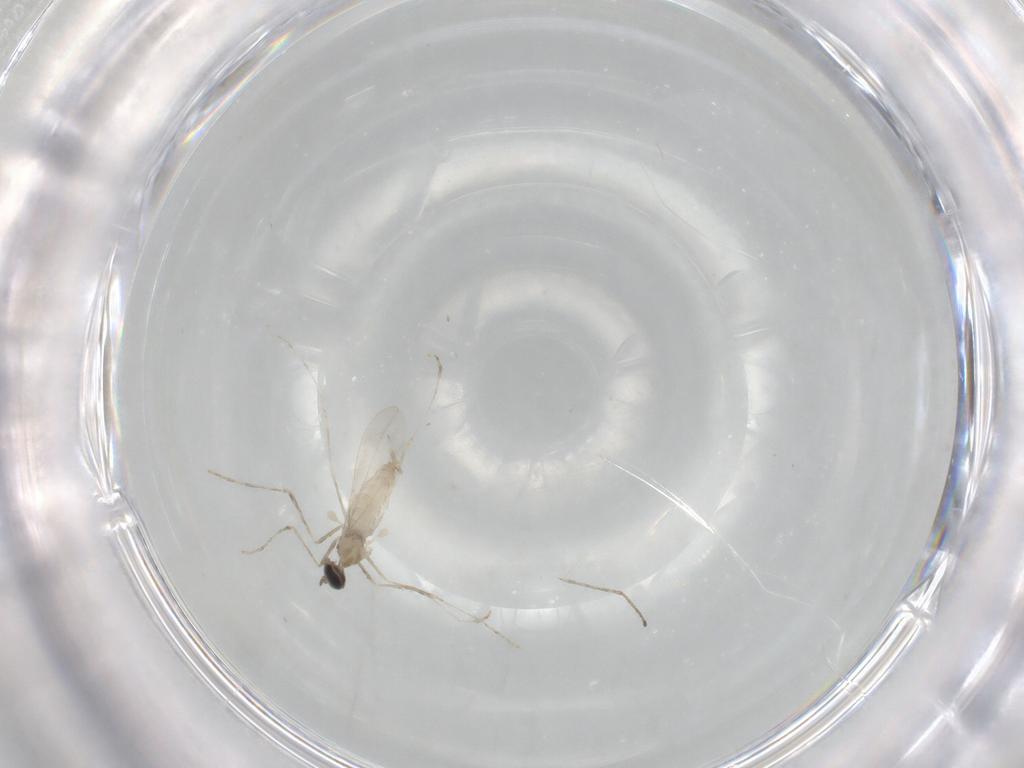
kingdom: Animalia
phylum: Arthropoda
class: Insecta
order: Diptera
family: Cecidomyiidae
